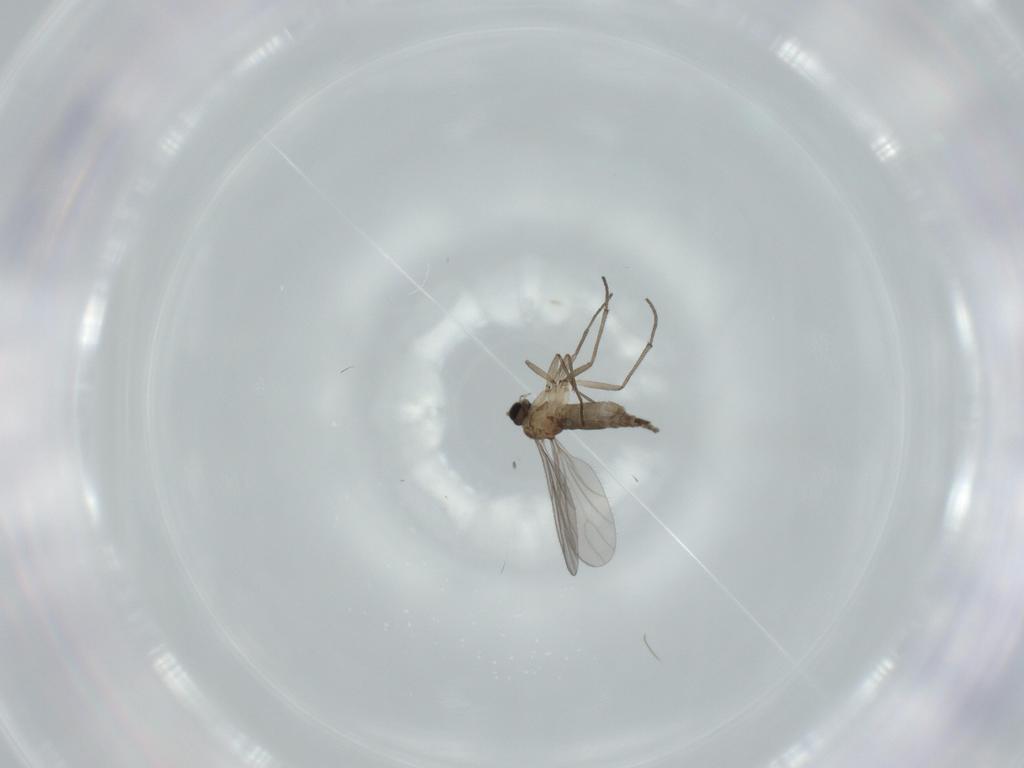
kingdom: Animalia
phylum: Arthropoda
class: Insecta
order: Diptera
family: Sciaridae
